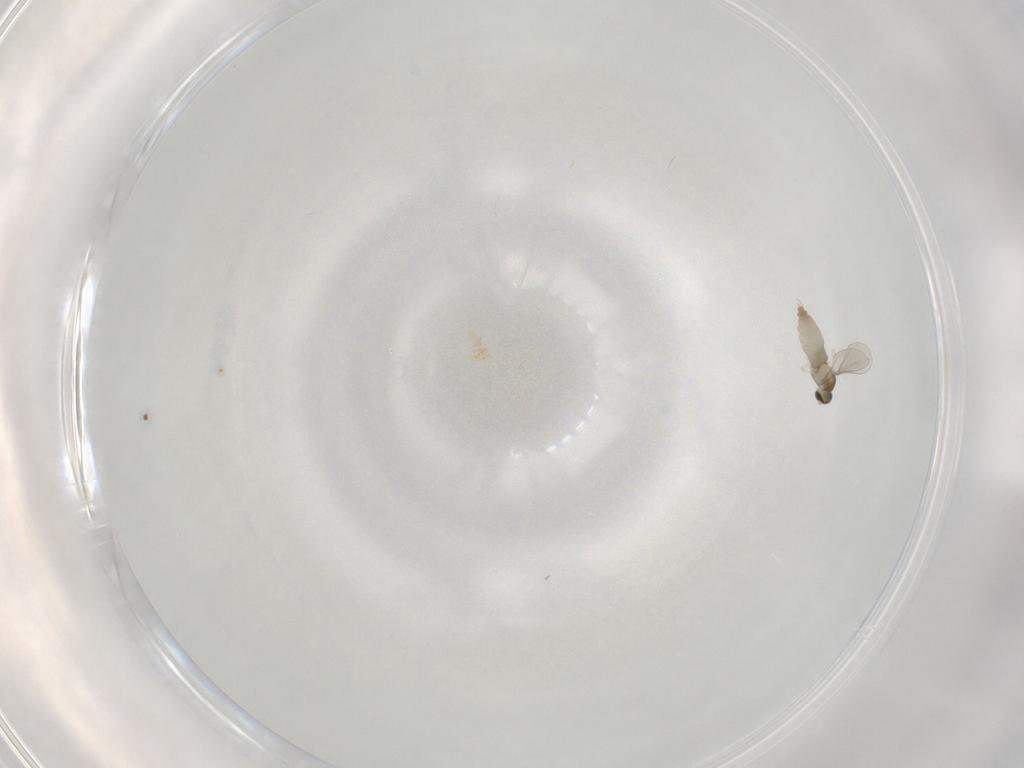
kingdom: Animalia
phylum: Arthropoda
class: Insecta
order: Diptera
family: Cecidomyiidae
